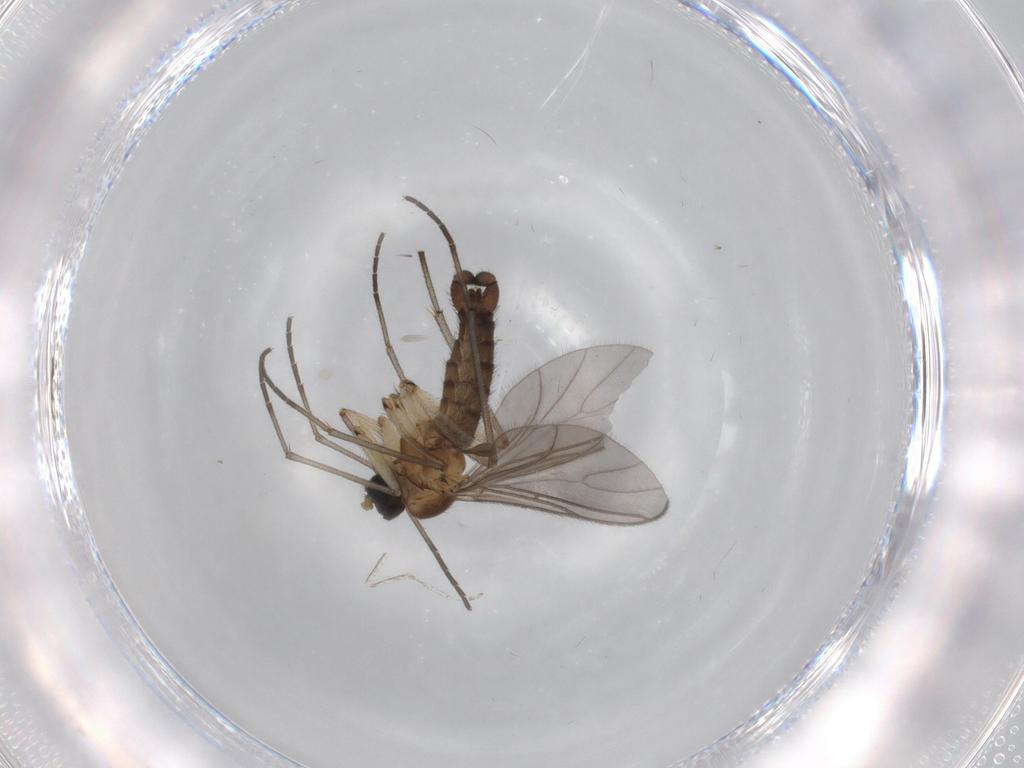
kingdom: Animalia
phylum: Arthropoda
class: Insecta
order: Diptera
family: Sciaridae
